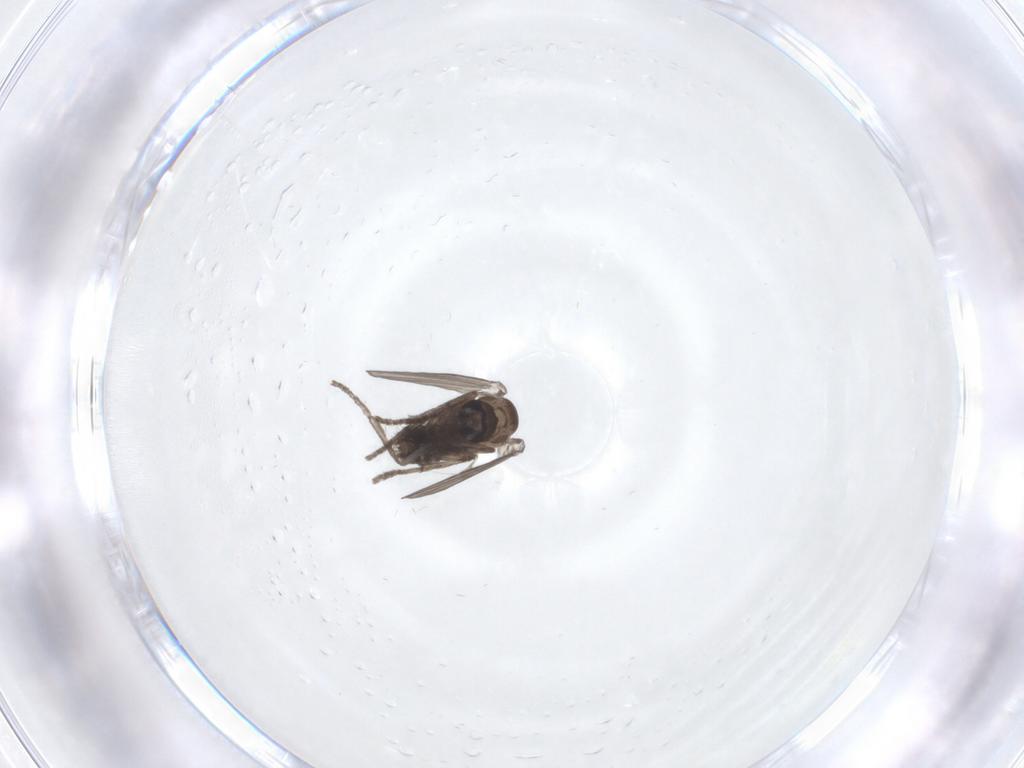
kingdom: Animalia
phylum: Arthropoda
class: Insecta
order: Diptera
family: Psychodidae
